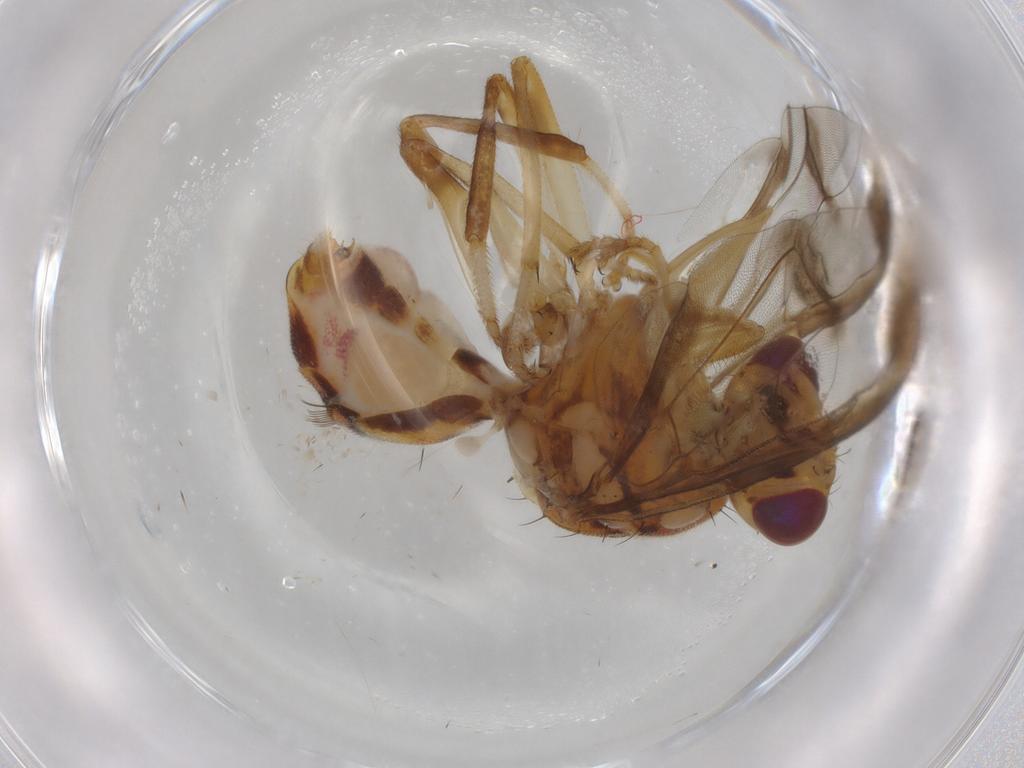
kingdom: Animalia
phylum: Arthropoda
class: Insecta
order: Diptera
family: Tephritidae
